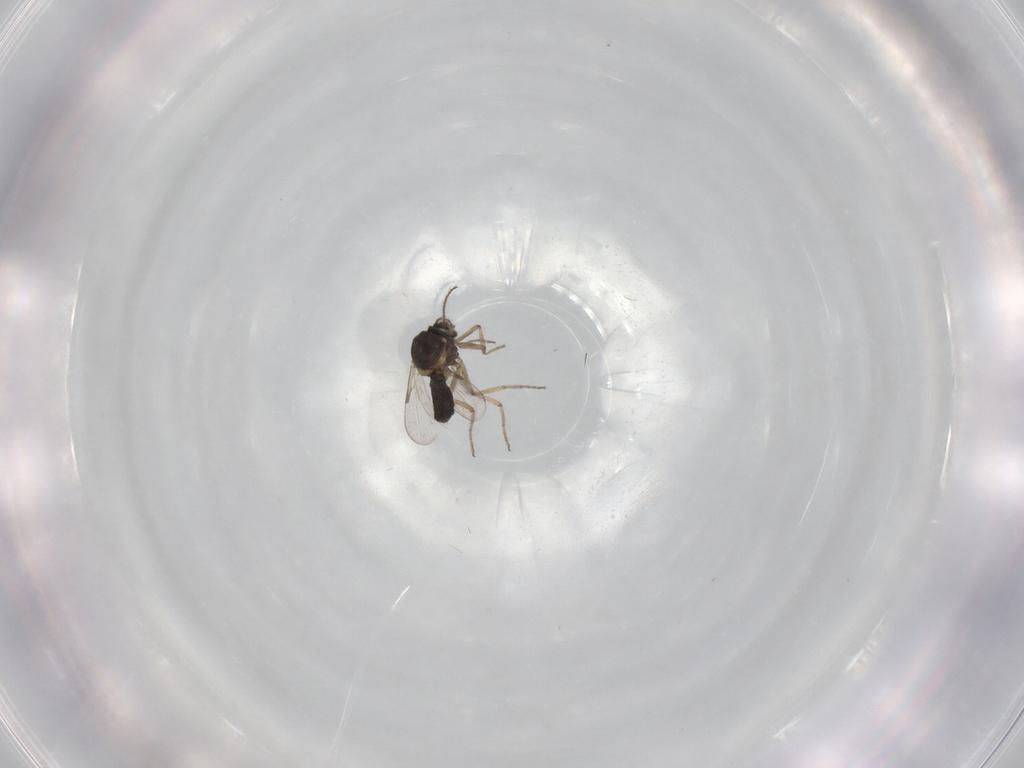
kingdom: Animalia
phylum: Arthropoda
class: Insecta
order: Diptera
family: Ceratopogonidae
